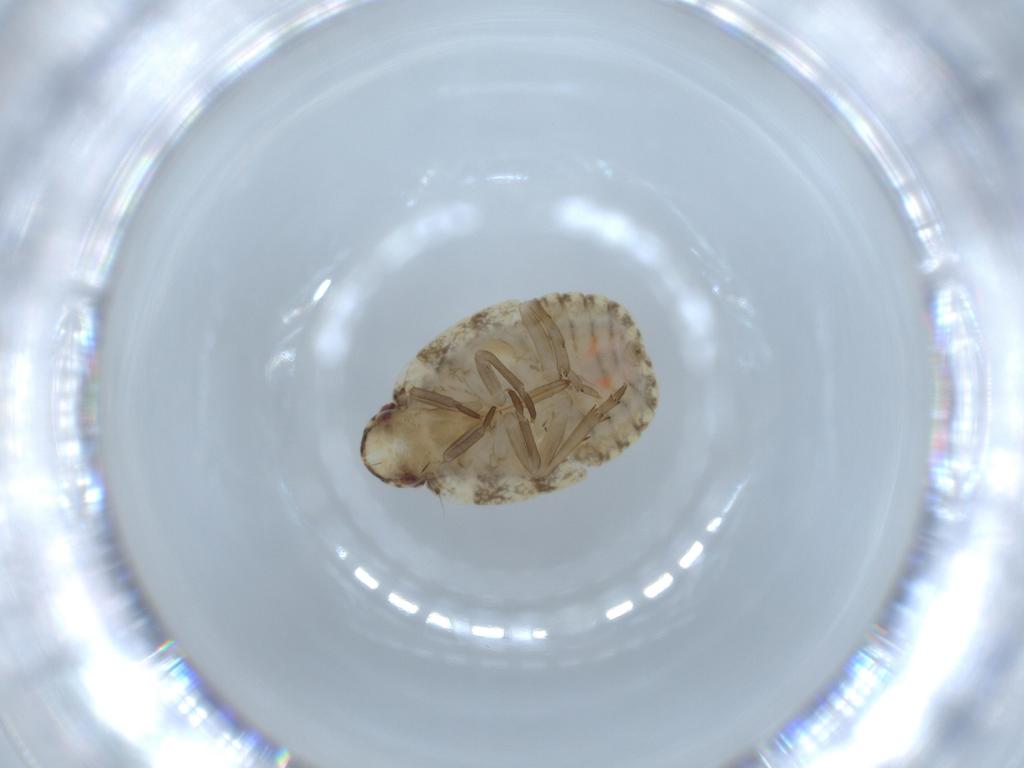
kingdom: Animalia
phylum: Arthropoda
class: Insecta
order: Hemiptera
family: Flatidae
